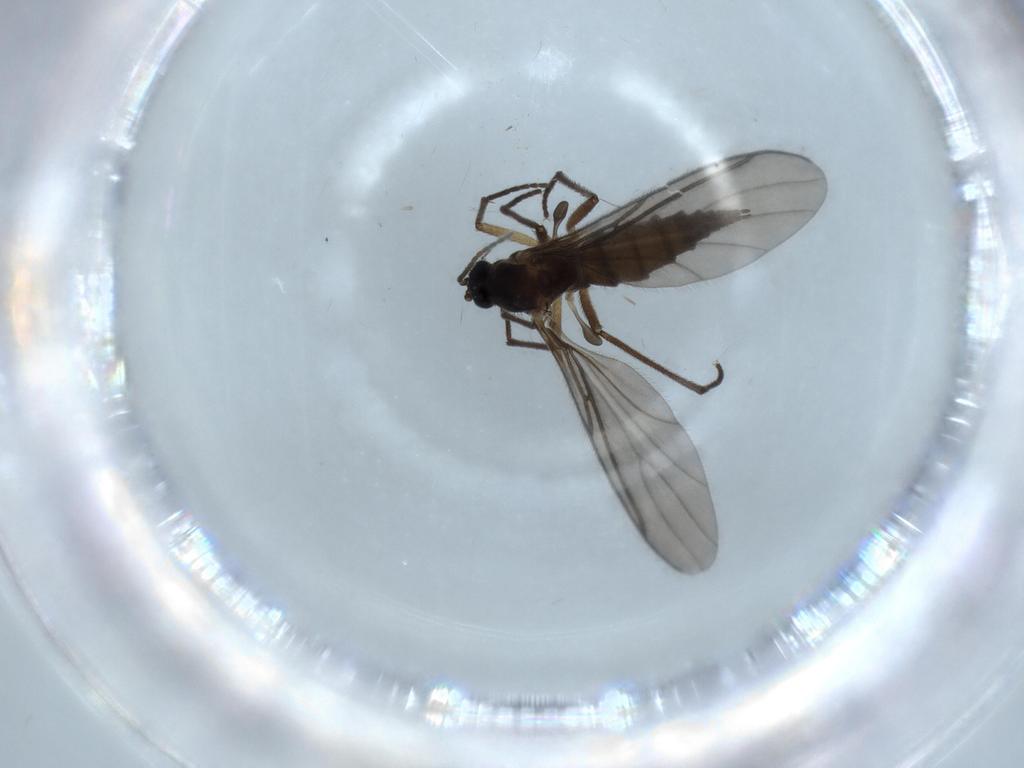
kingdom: Animalia
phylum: Arthropoda
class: Insecta
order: Diptera
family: Sciaridae
